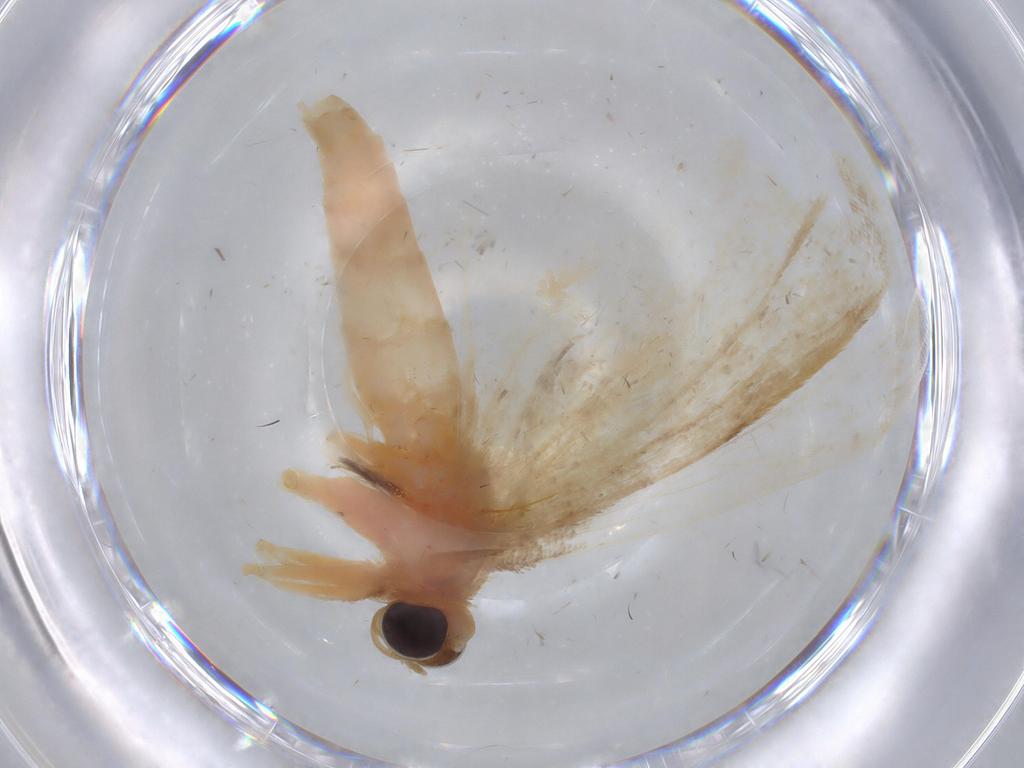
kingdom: Animalia
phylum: Arthropoda
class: Insecta
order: Lepidoptera
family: Geometridae
